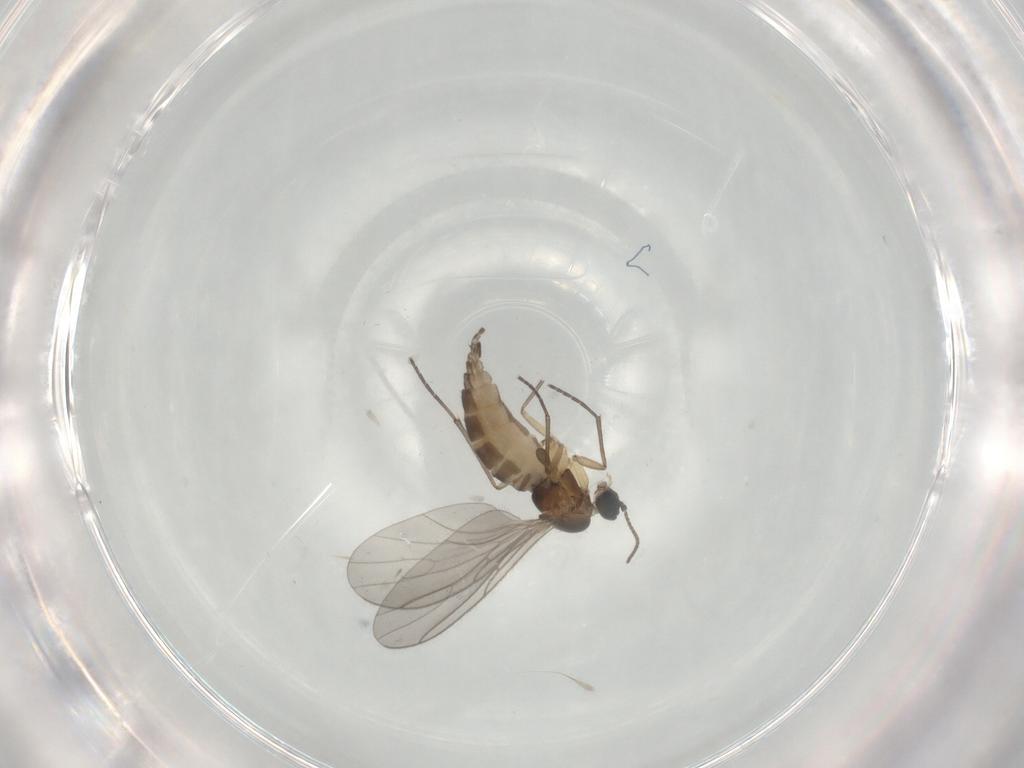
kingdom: Animalia
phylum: Arthropoda
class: Insecta
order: Diptera
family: Sciaridae
